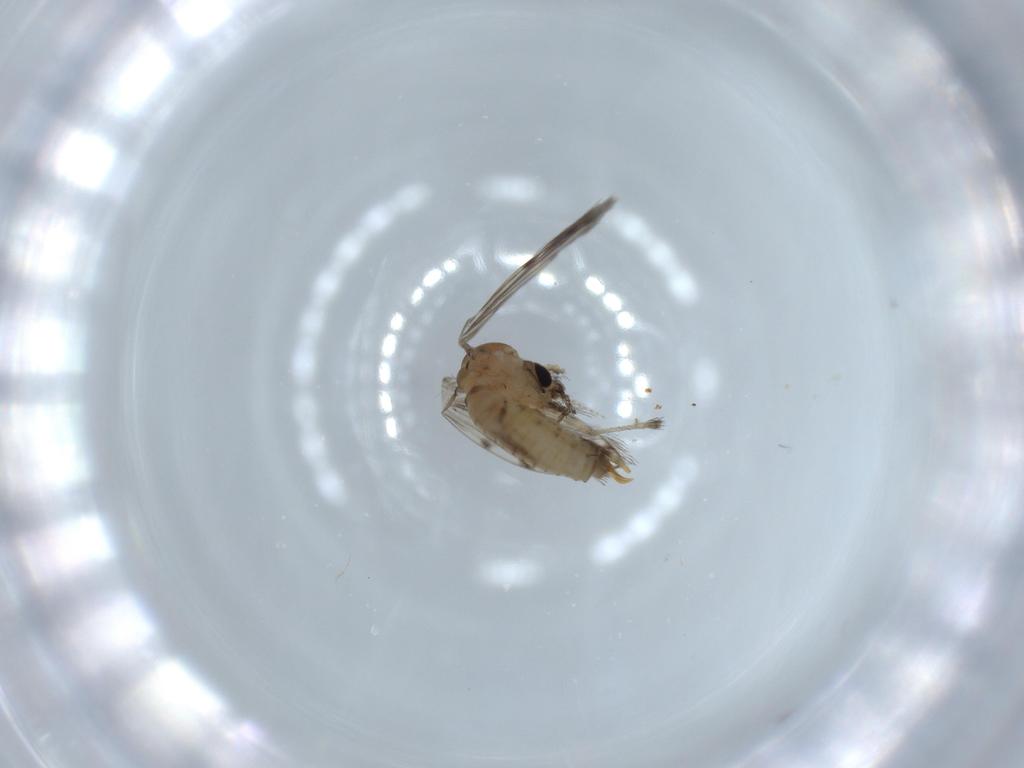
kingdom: Animalia
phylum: Arthropoda
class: Insecta
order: Diptera
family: Psychodidae
